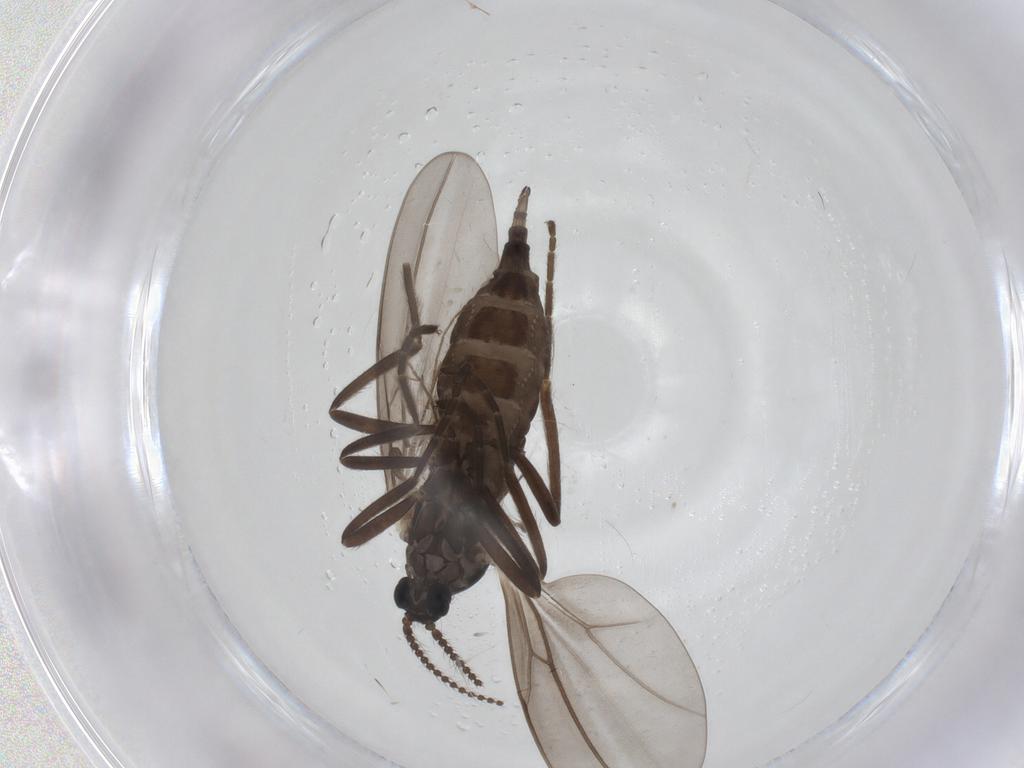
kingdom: Animalia
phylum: Arthropoda
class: Insecta
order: Diptera
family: Cecidomyiidae
